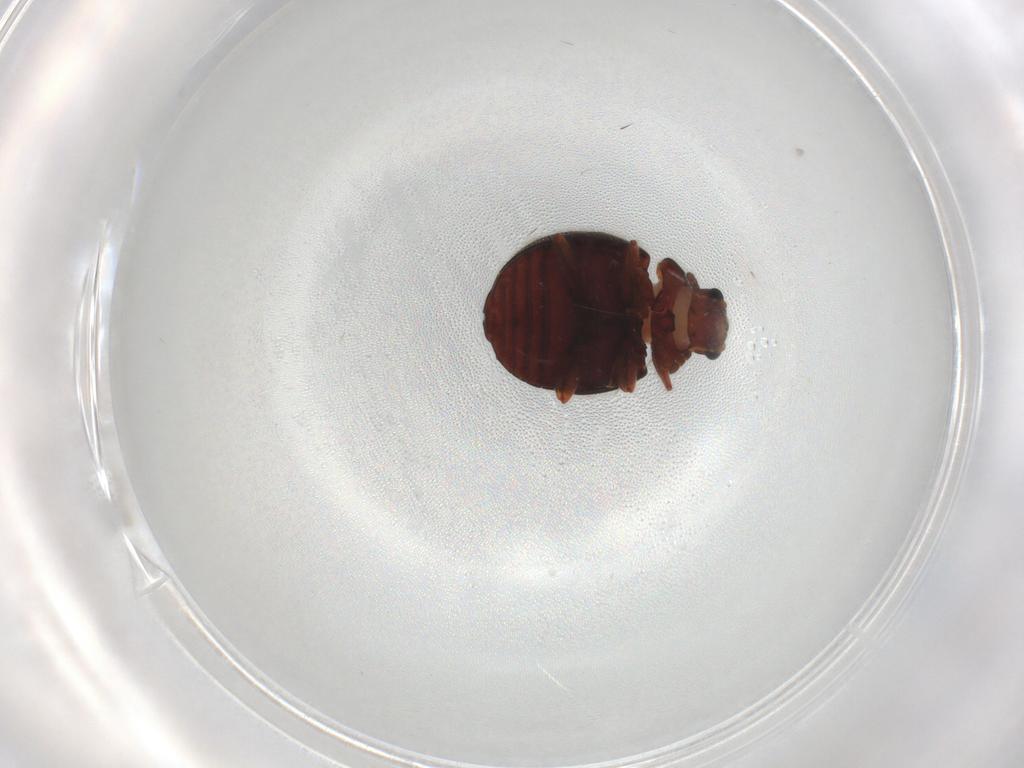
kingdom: Animalia
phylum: Arthropoda
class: Insecta
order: Coleoptera
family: Sphindidae
